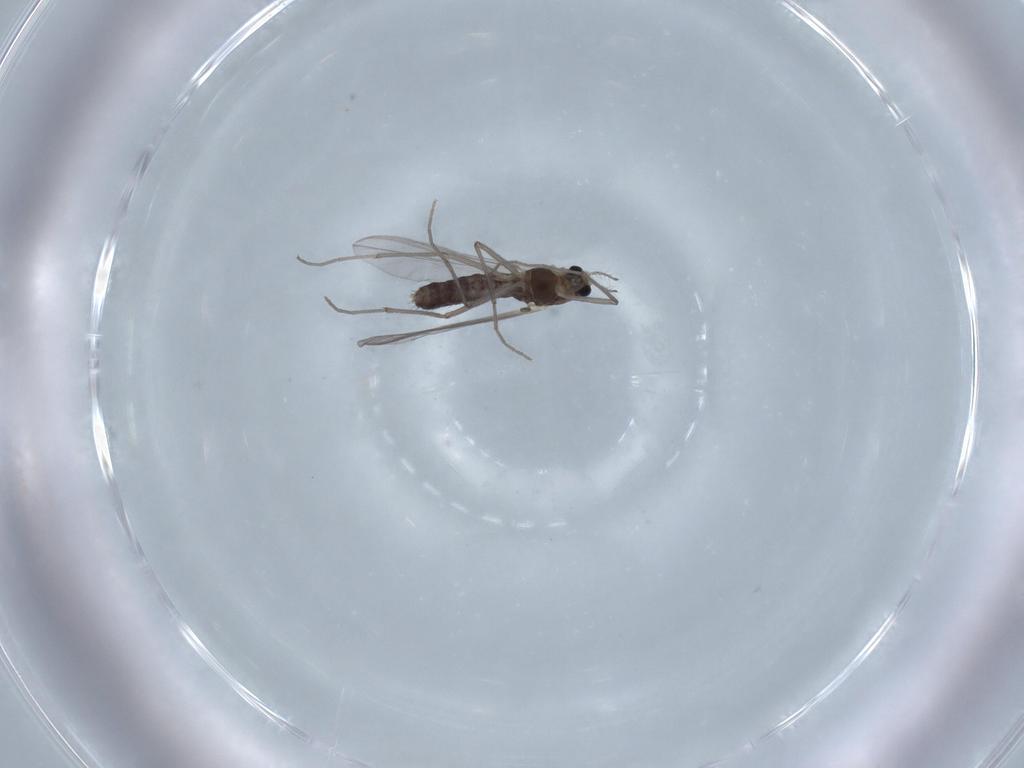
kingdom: Animalia
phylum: Arthropoda
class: Insecta
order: Diptera
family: Chironomidae
